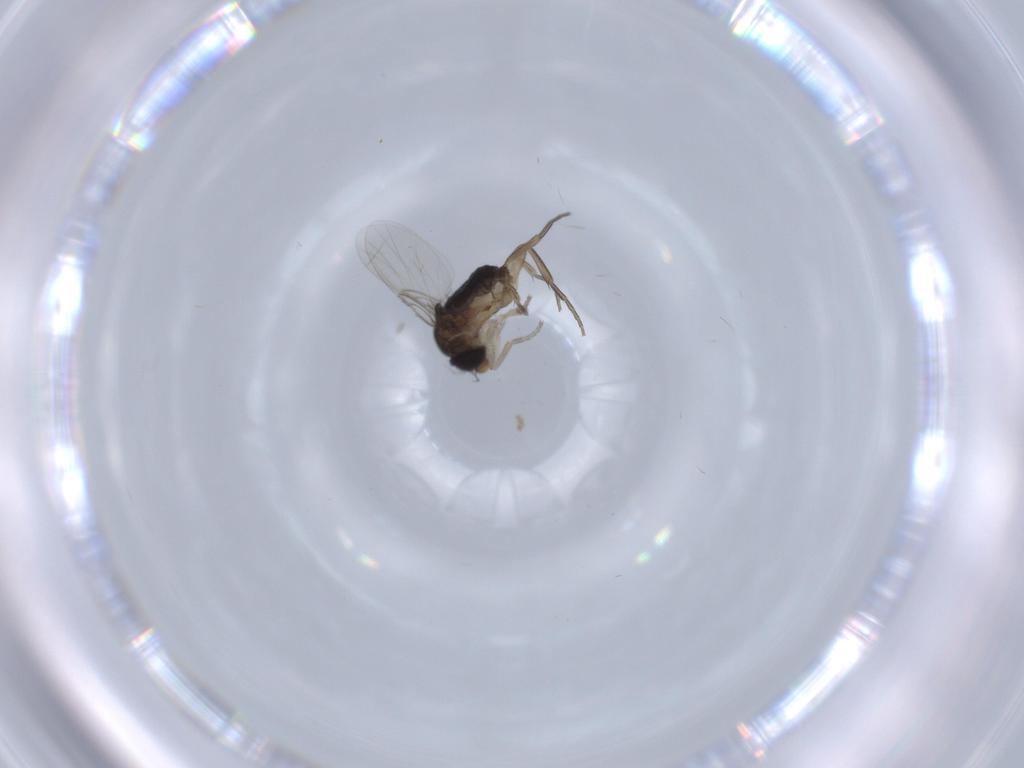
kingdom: Animalia
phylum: Arthropoda
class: Insecta
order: Diptera
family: Phoridae
